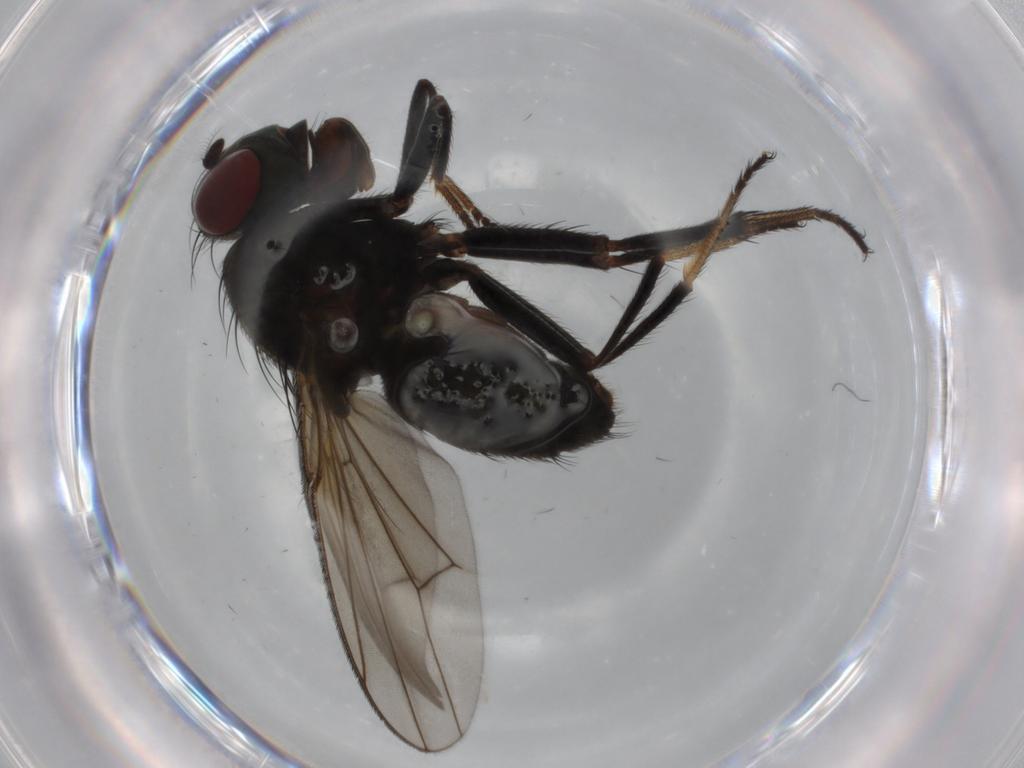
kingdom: Animalia
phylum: Arthropoda
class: Insecta
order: Diptera
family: Ephydridae
